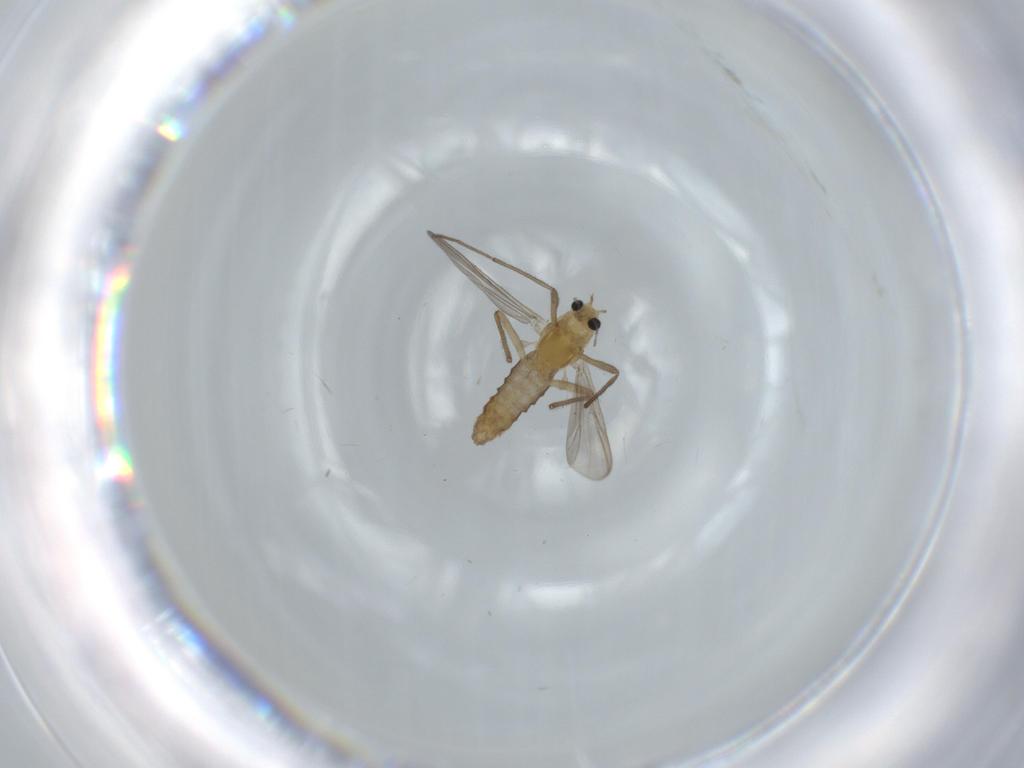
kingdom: Animalia
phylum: Arthropoda
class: Insecta
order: Diptera
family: Chironomidae
